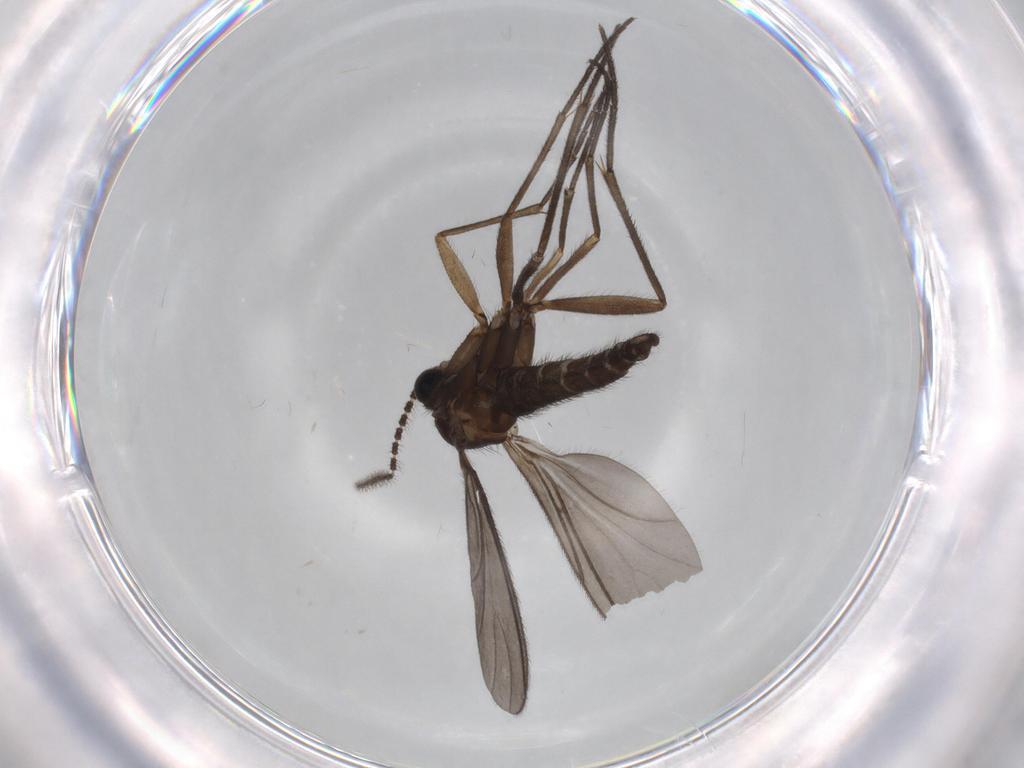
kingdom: Animalia
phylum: Arthropoda
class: Insecta
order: Diptera
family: Sciaridae
